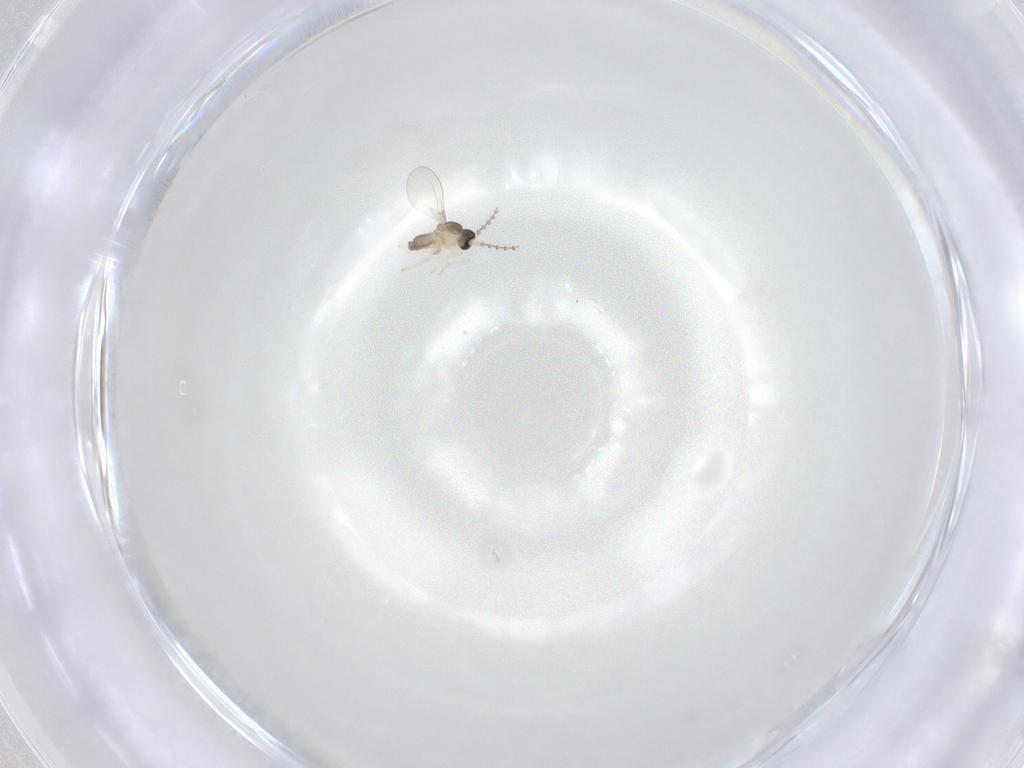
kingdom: Animalia
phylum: Arthropoda
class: Insecta
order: Diptera
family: Cecidomyiidae
